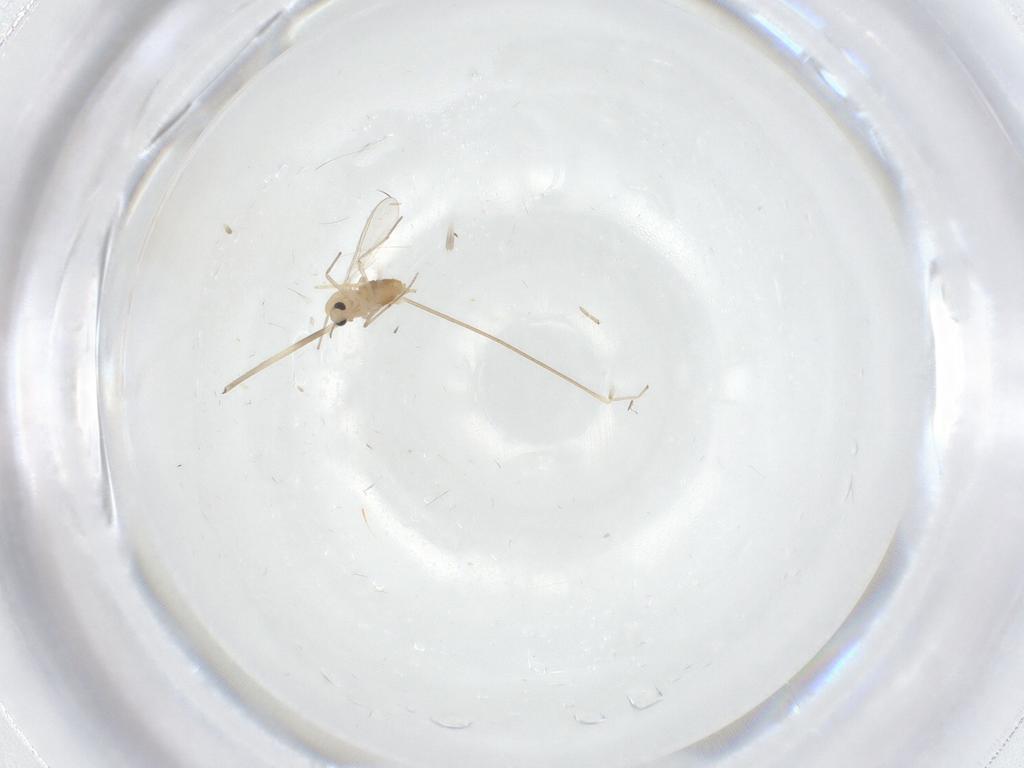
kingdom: Animalia
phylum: Arthropoda
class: Insecta
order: Diptera
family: Chironomidae
